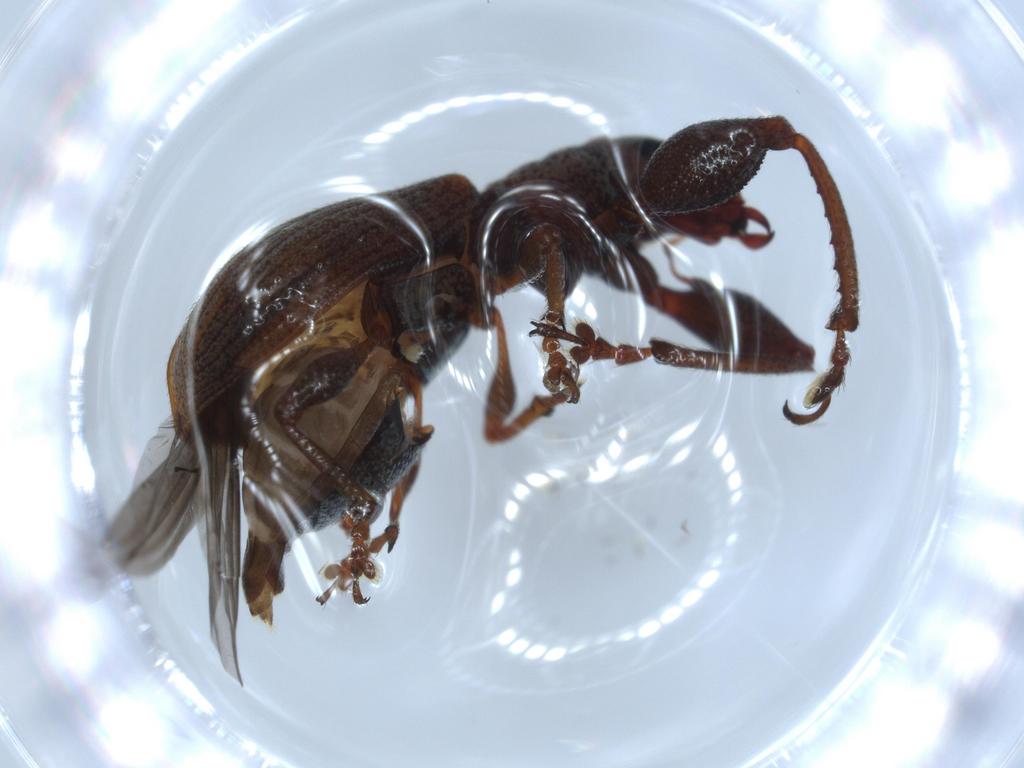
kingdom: Animalia
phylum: Arthropoda
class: Insecta
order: Coleoptera
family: Curculionidae
